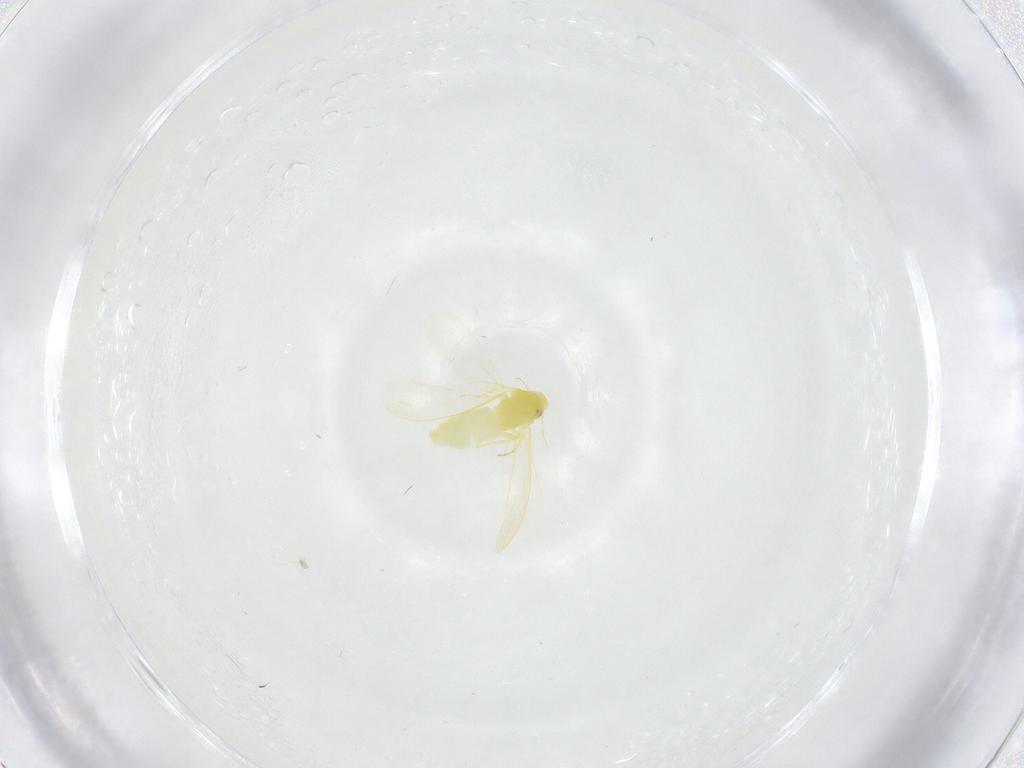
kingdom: Animalia
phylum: Arthropoda
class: Insecta
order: Hemiptera
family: Aleyrodidae
